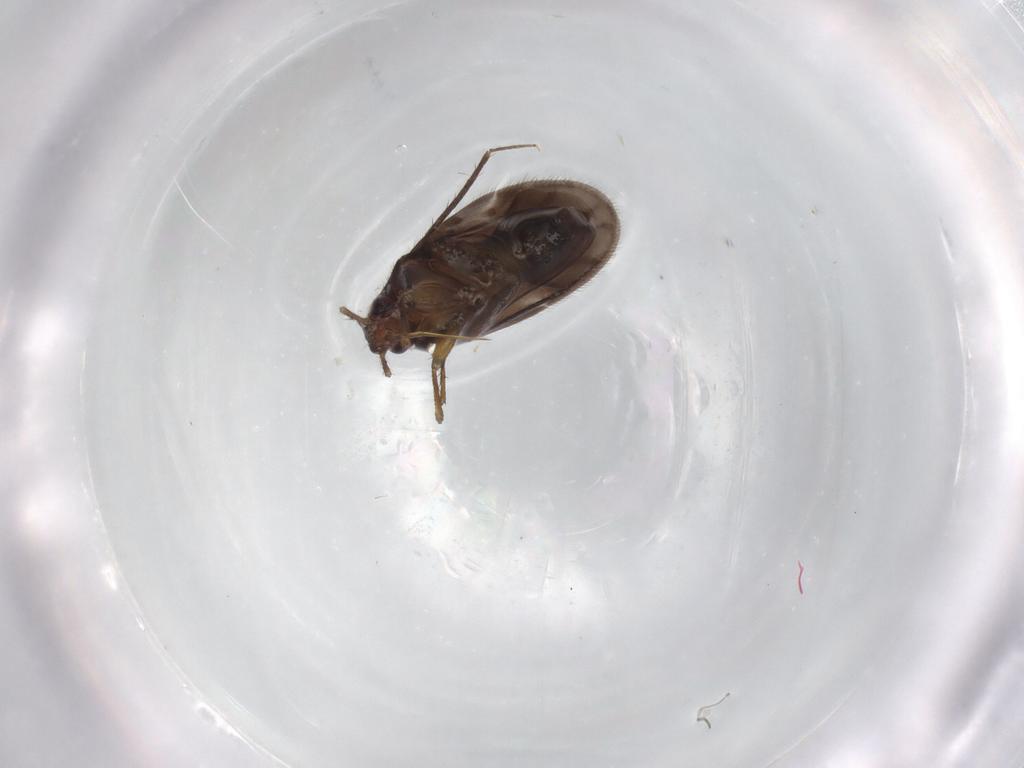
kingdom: Animalia
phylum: Arthropoda
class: Insecta
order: Hemiptera
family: Ceratocombidae
